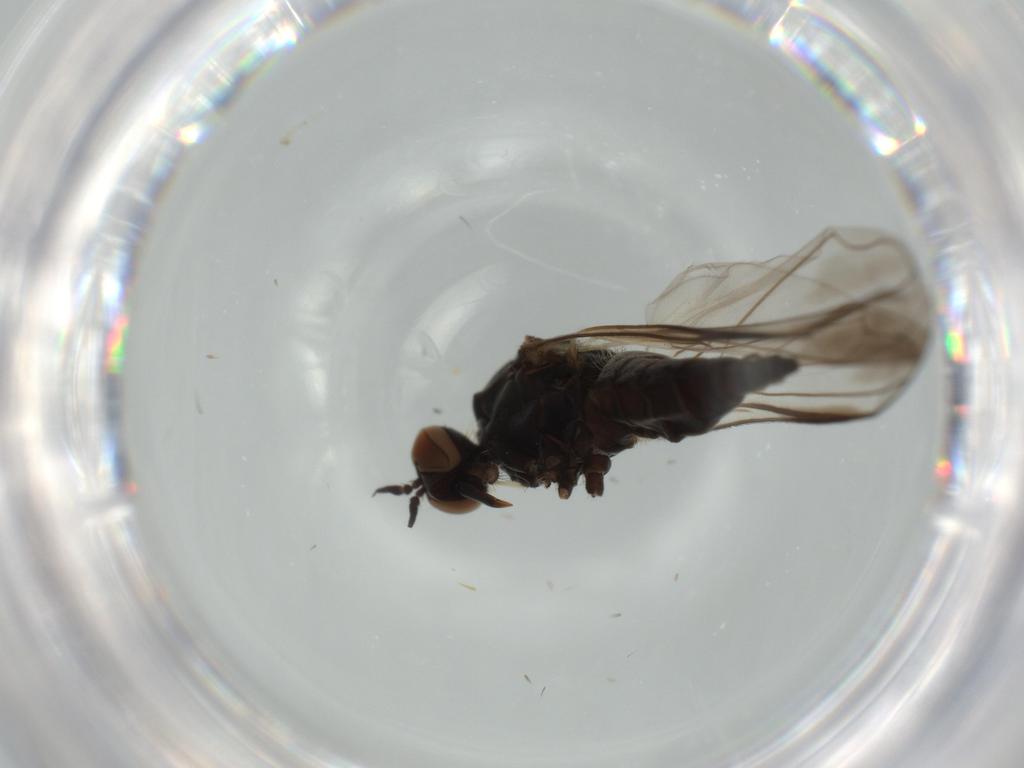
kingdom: Animalia
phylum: Arthropoda
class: Insecta
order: Diptera
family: Empididae
